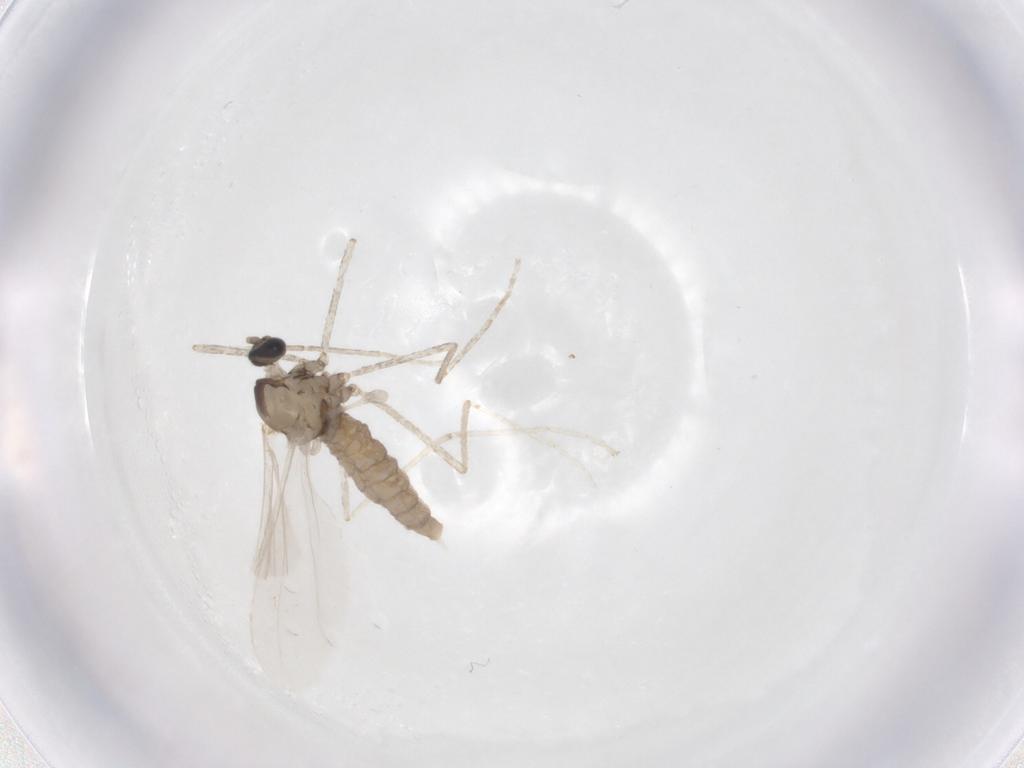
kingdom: Animalia
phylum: Arthropoda
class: Insecta
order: Diptera
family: Cecidomyiidae
